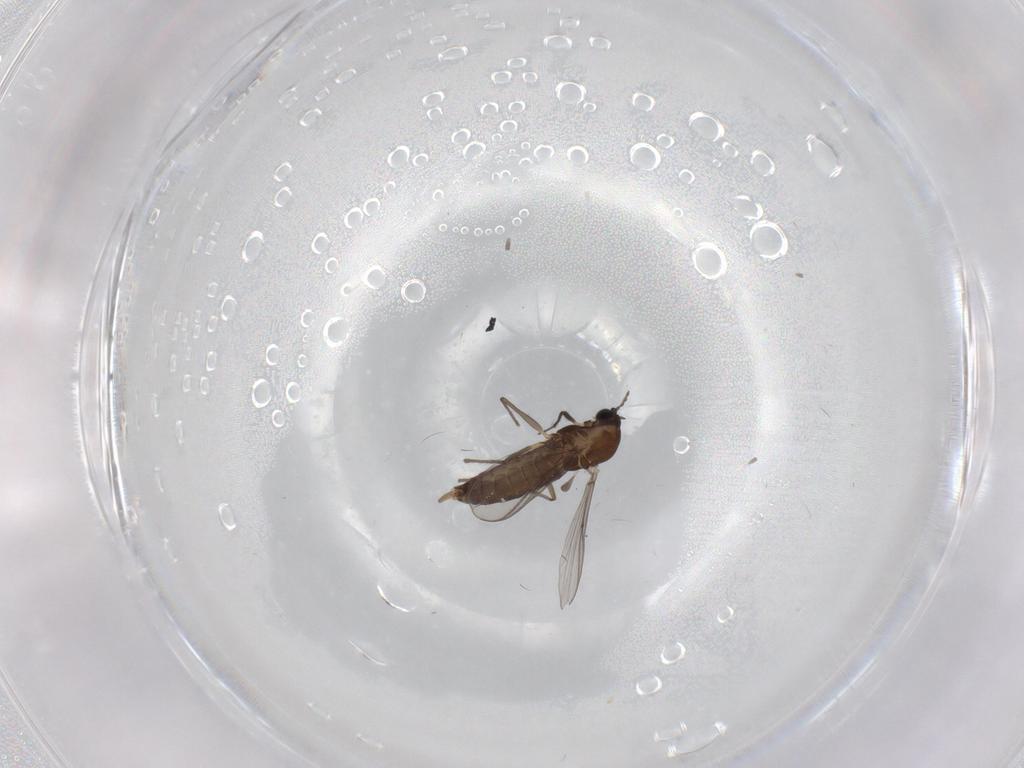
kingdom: Animalia
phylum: Arthropoda
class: Insecta
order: Diptera
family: Chironomidae
